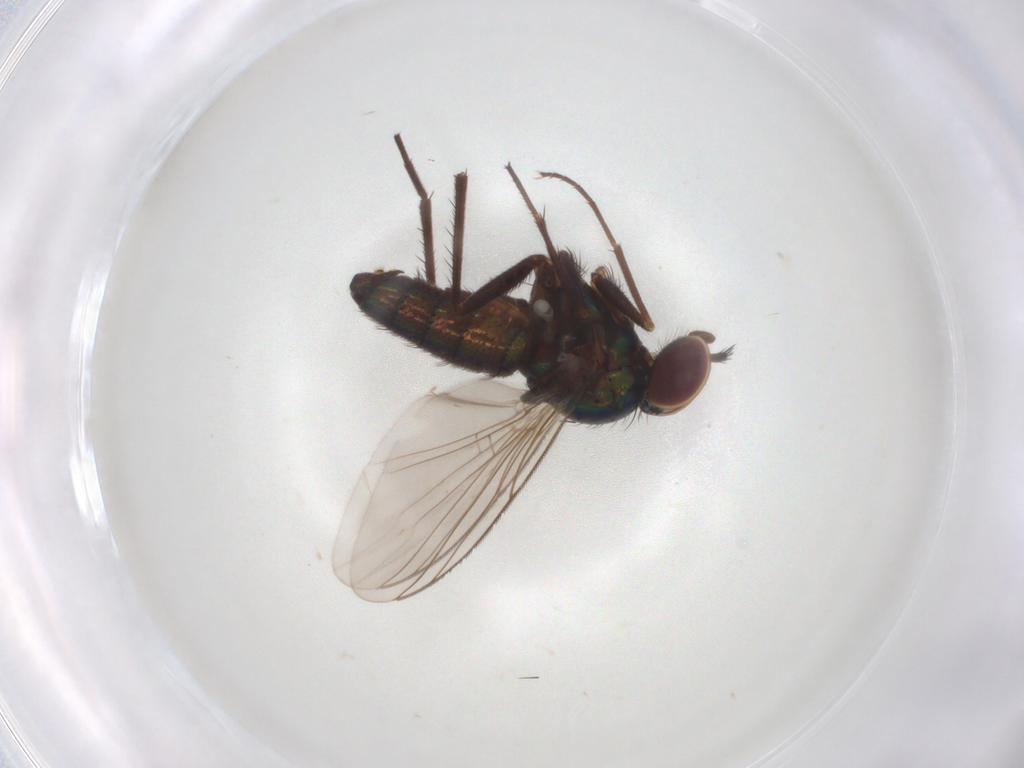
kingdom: Animalia
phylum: Arthropoda
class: Insecta
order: Diptera
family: Dolichopodidae
